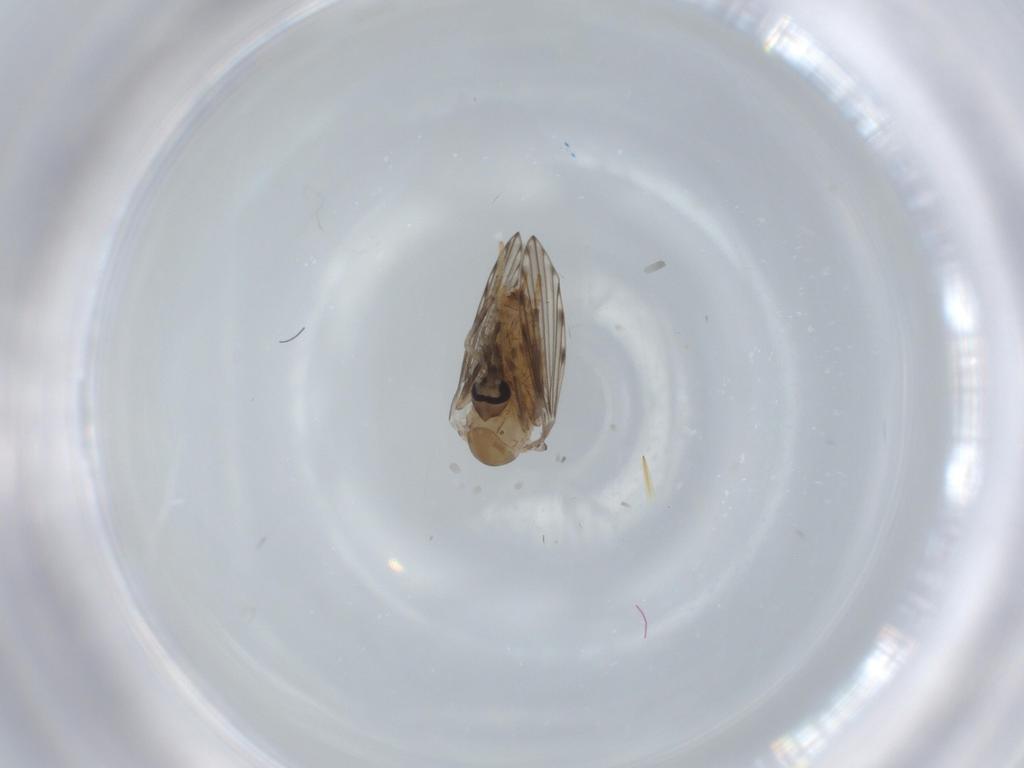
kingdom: Animalia
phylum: Arthropoda
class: Insecta
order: Diptera
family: Psychodidae
